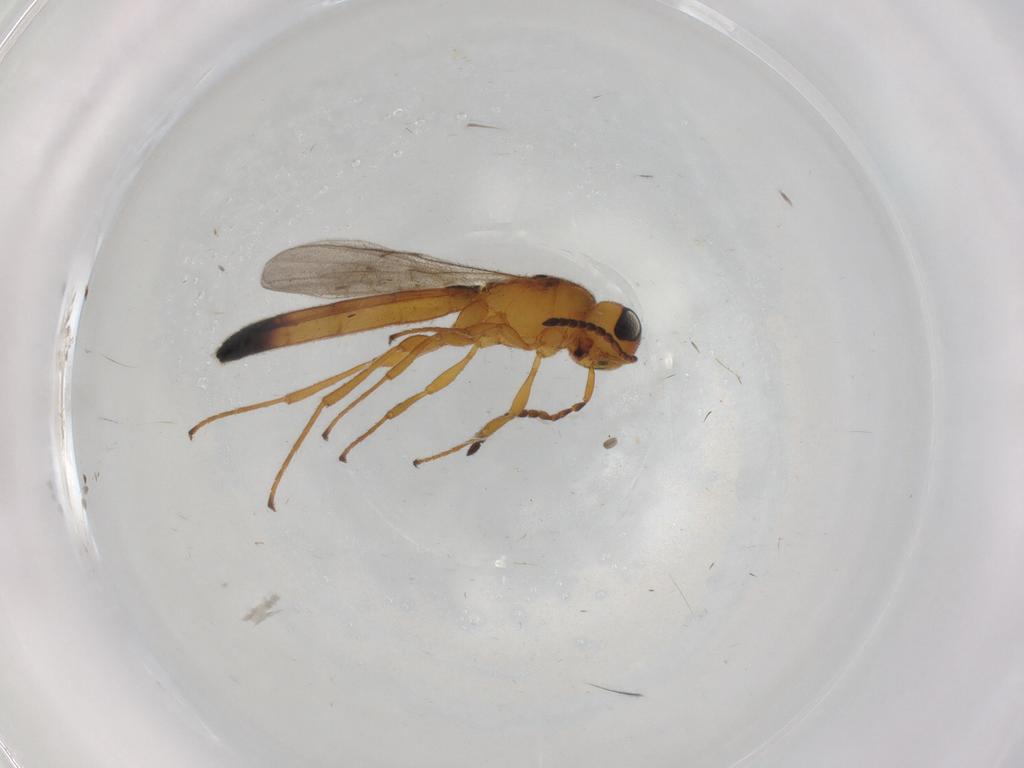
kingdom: Animalia
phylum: Arthropoda
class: Insecta
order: Hymenoptera
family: Scelionidae
